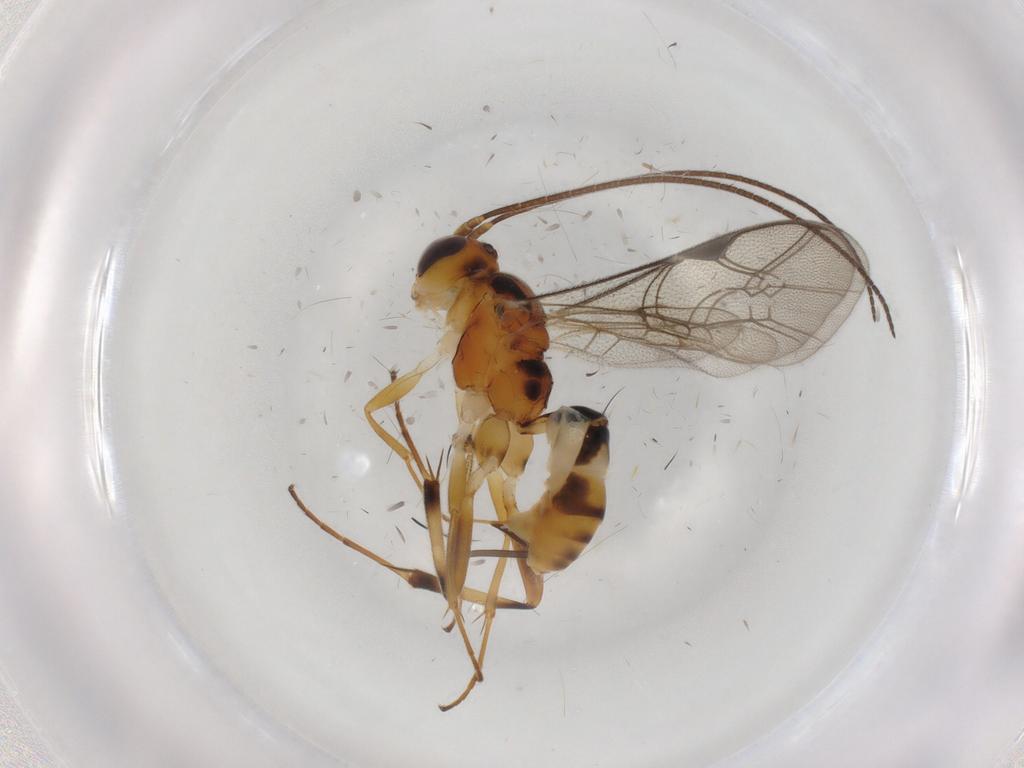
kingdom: Animalia
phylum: Arthropoda
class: Insecta
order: Hymenoptera
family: Ichneumonidae
